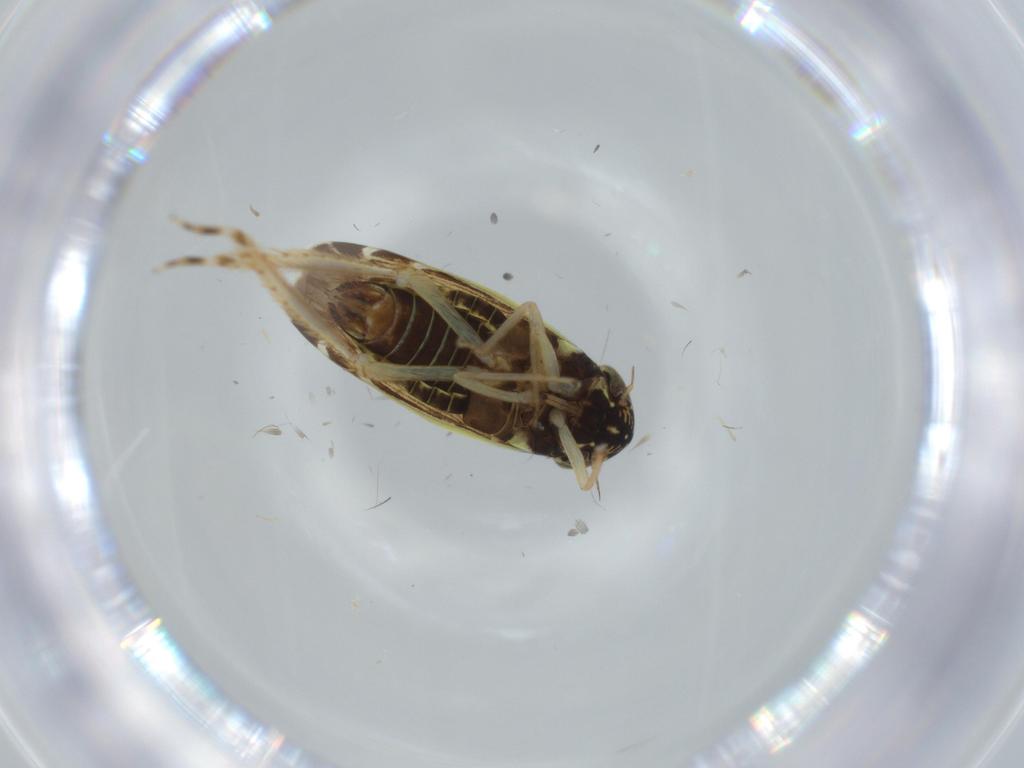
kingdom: Animalia
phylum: Arthropoda
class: Insecta
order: Hemiptera
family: Cicadellidae
